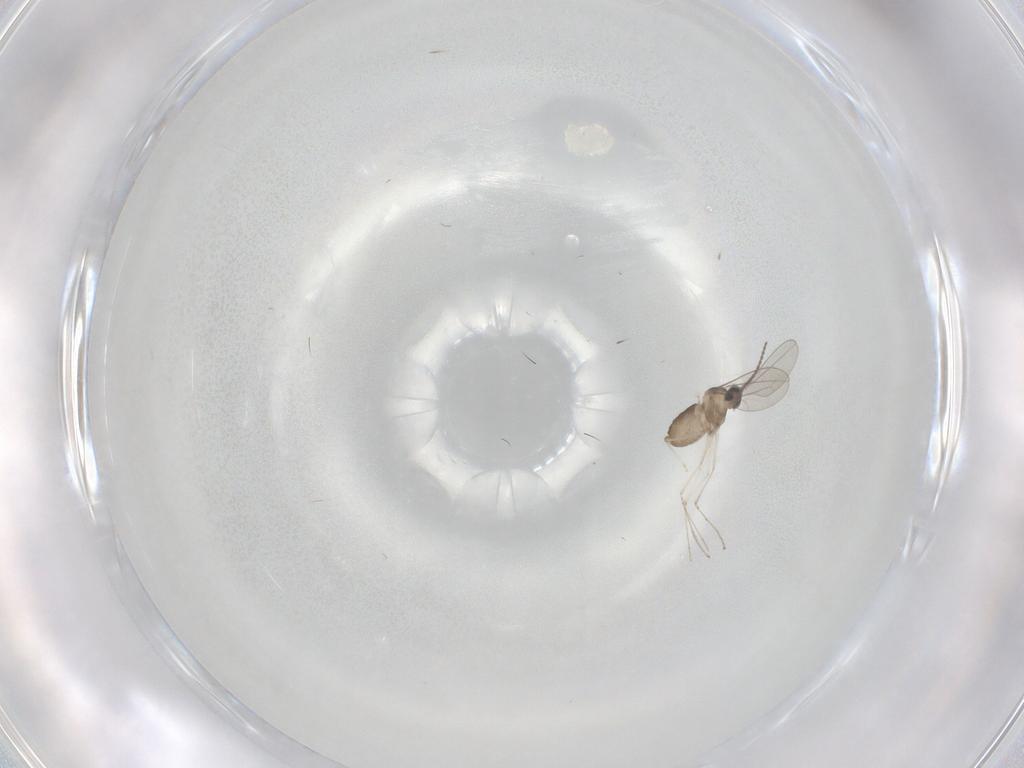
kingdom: Animalia
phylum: Arthropoda
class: Insecta
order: Diptera
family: Cecidomyiidae
